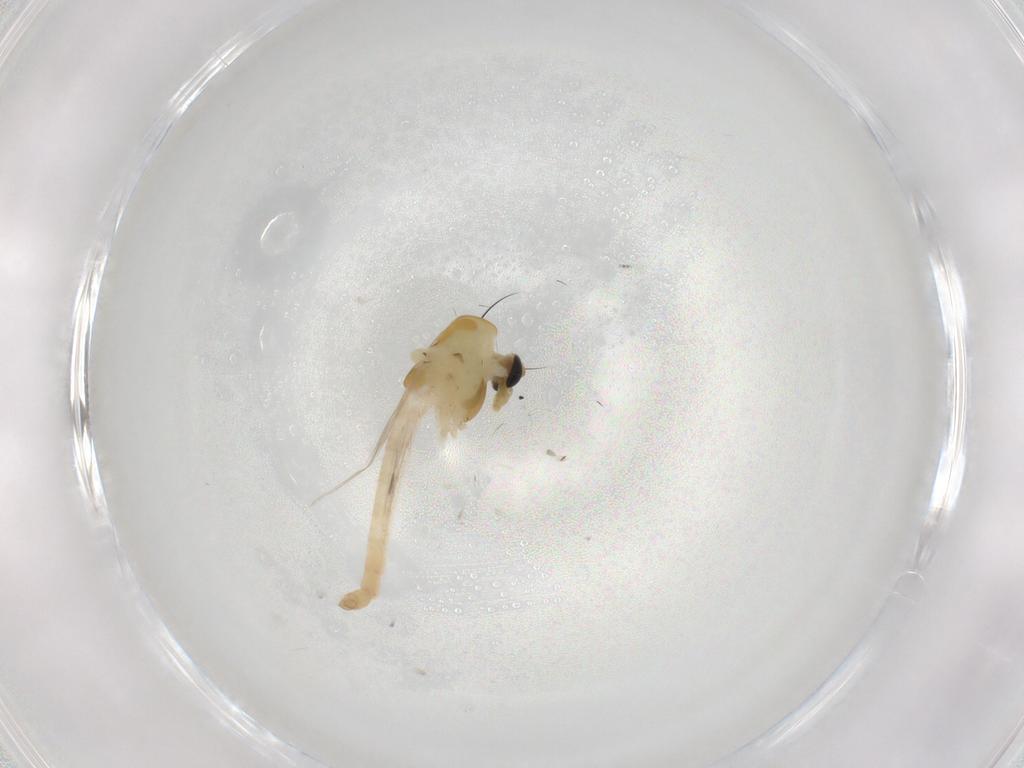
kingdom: Animalia
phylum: Arthropoda
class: Insecta
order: Diptera
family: Chironomidae
